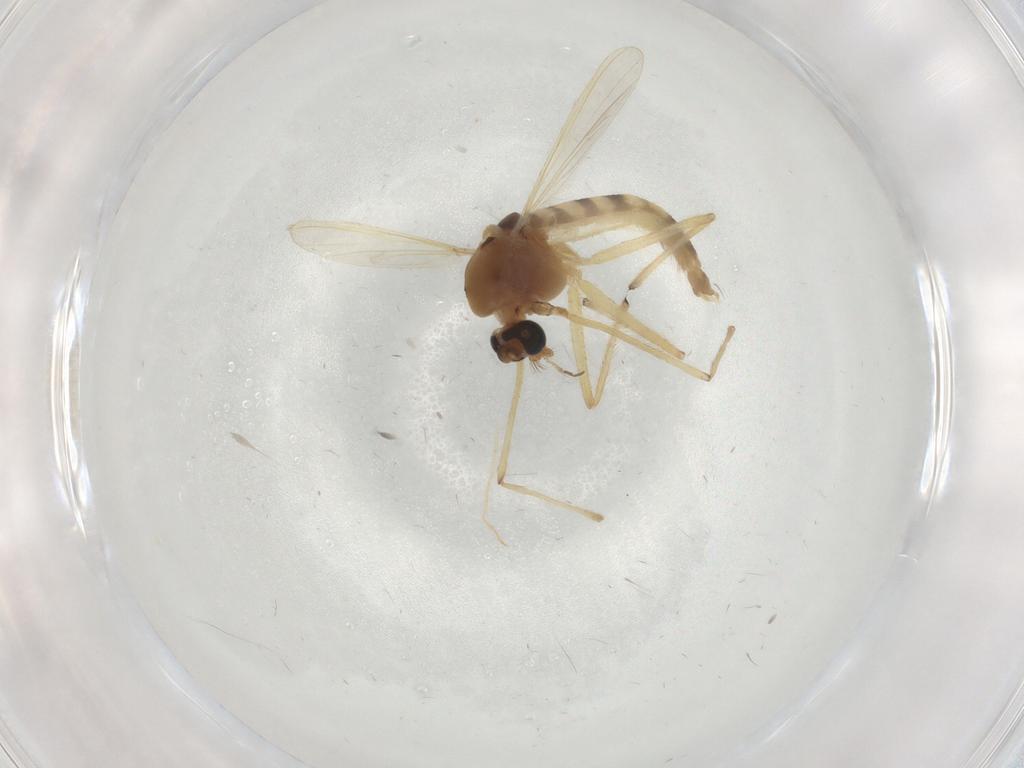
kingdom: Animalia
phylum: Arthropoda
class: Insecta
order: Diptera
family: Chironomidae
